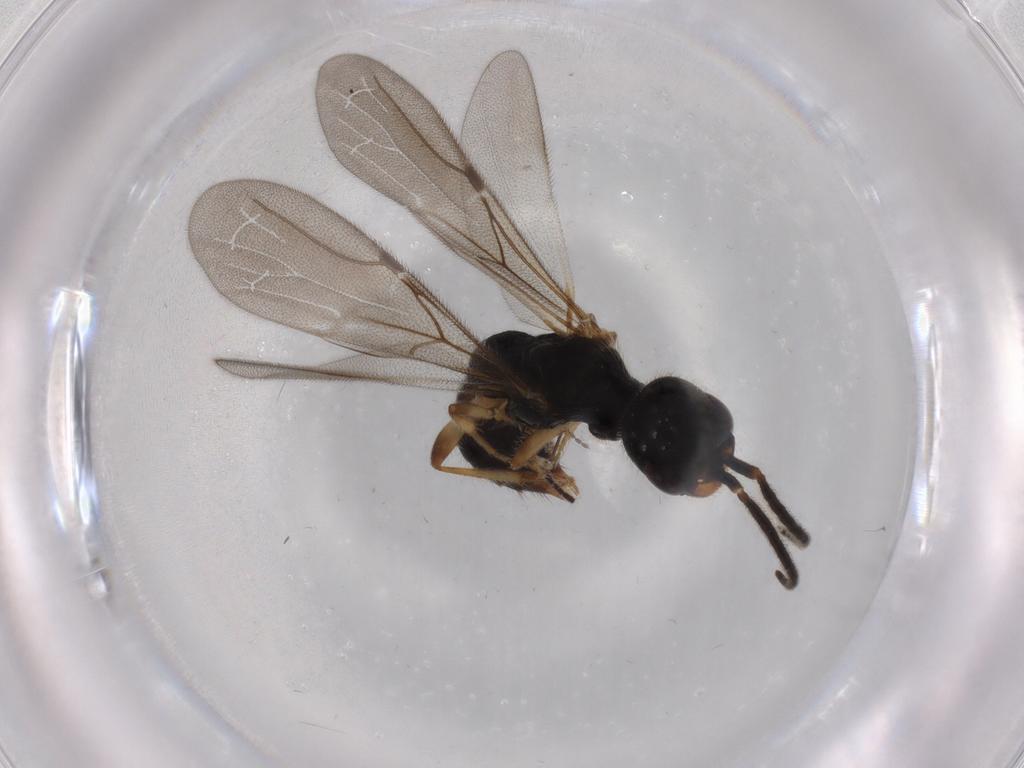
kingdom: Animalia
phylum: Arthropoda
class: Insecta
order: Hymenoptera
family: Bethylidae
